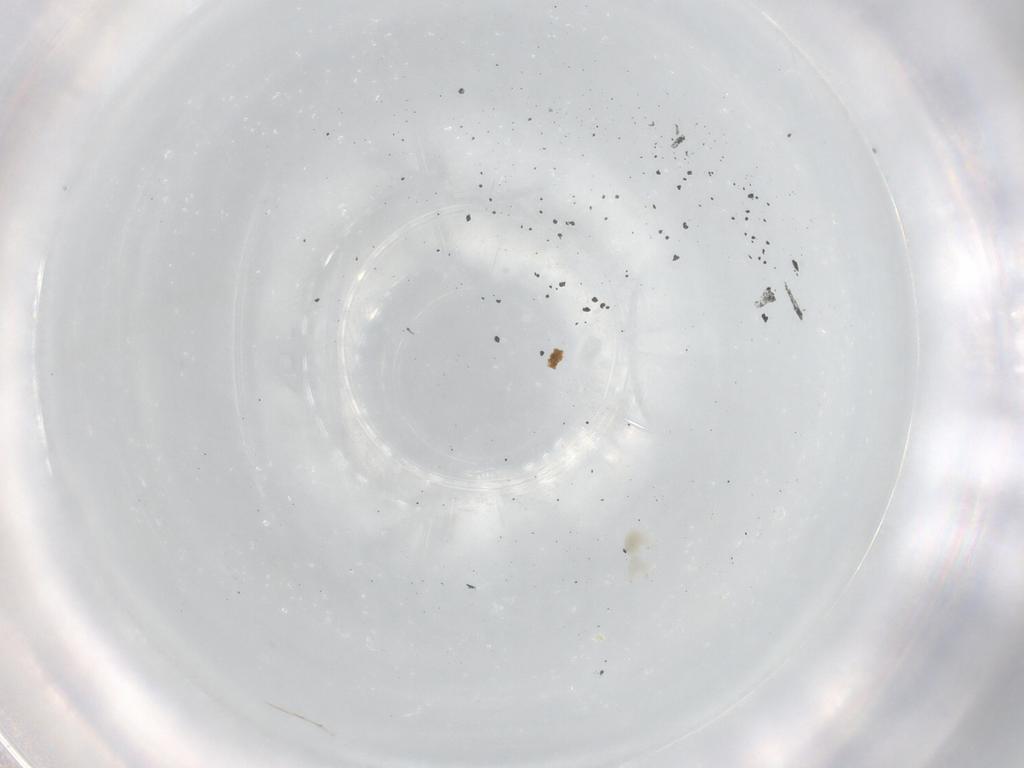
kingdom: Animalia
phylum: Arthropoda
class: Arachnida
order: Sarcoptiformes
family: Eremaeidae
